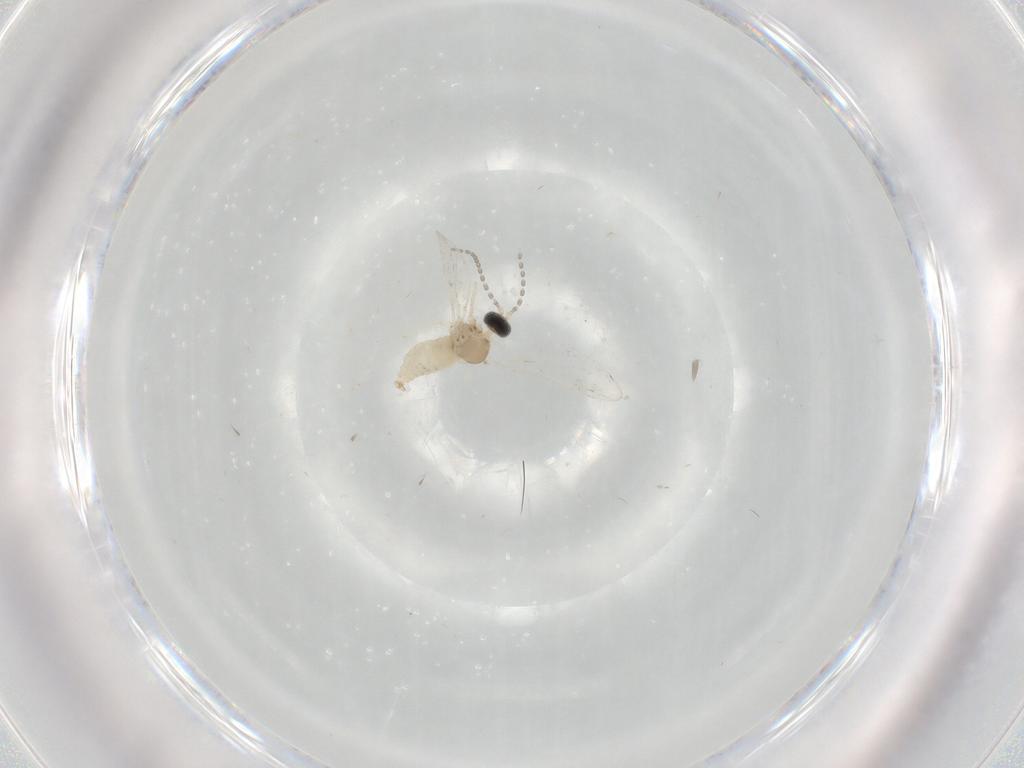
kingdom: Animalia
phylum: Arthropoda
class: Insecta
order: Diptera
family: Cecidomyiidae
